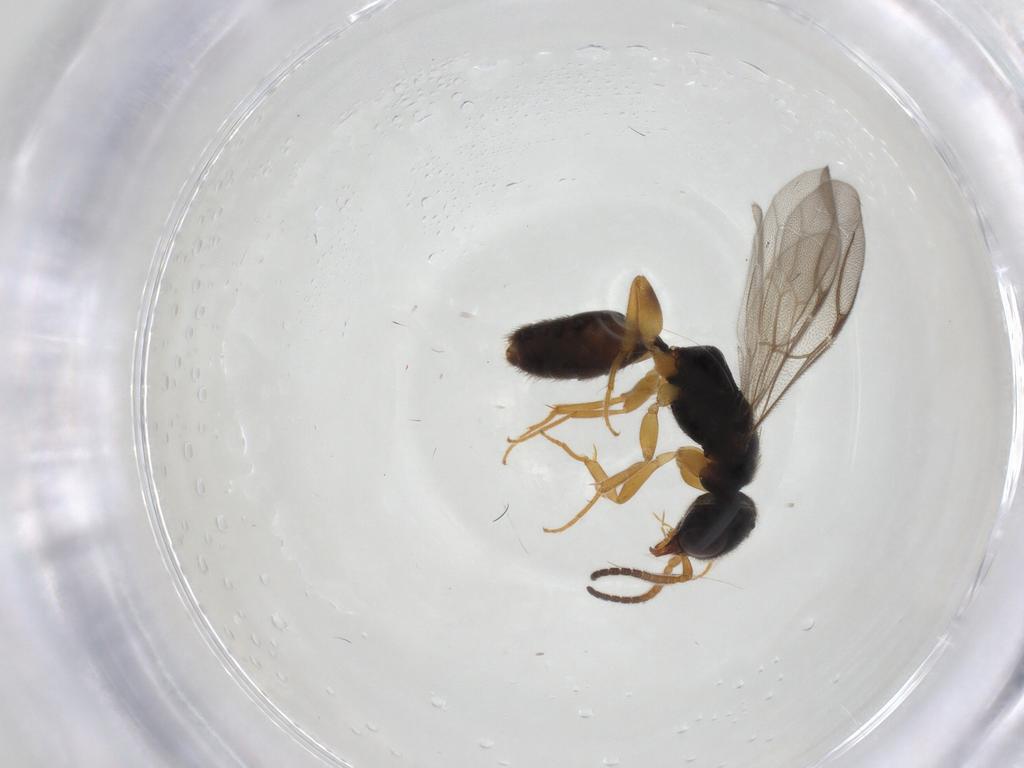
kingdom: Animalia
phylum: Arthropoda
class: Insecta
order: Hymenoptera
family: Bethylidae
